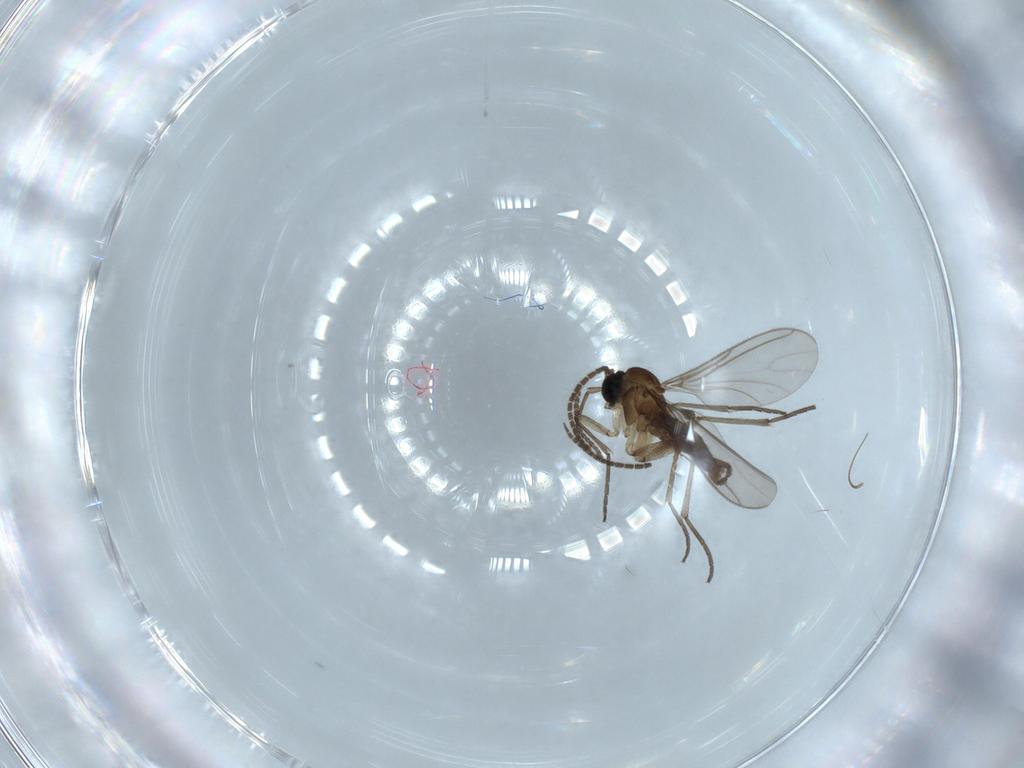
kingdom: Animalia
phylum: Arthropoda
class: Insecta
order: Diptera
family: Sciaridae
